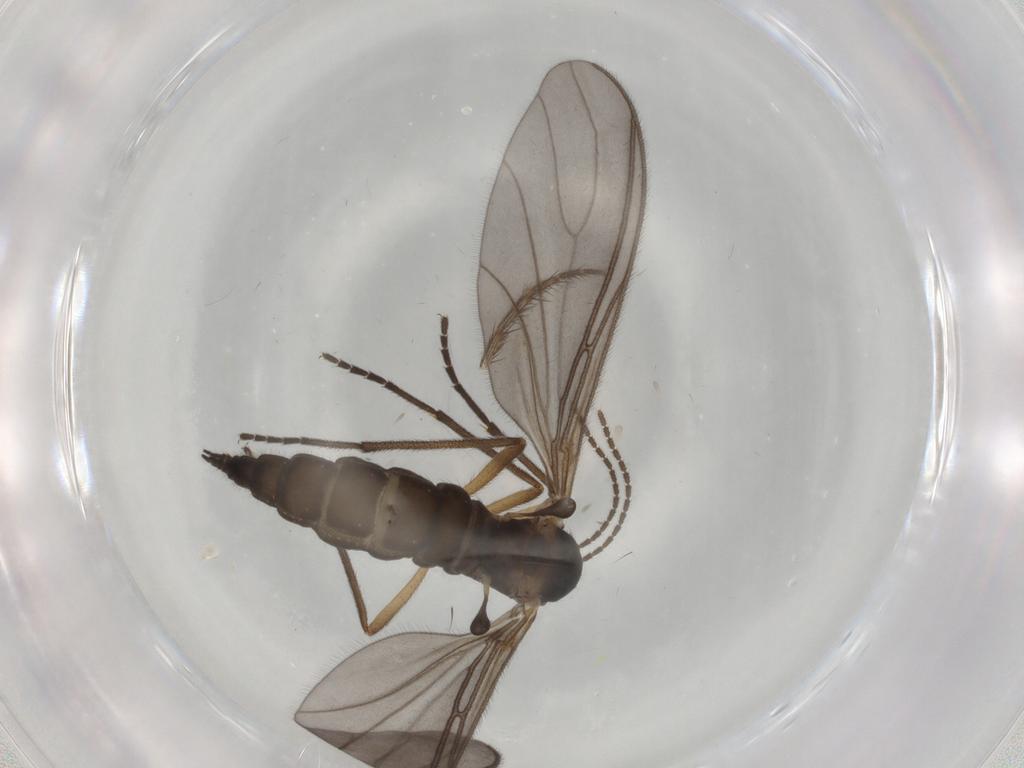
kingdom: Animalia
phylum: Arthropoda
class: Insecta
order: Diptera
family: Sciaridae
